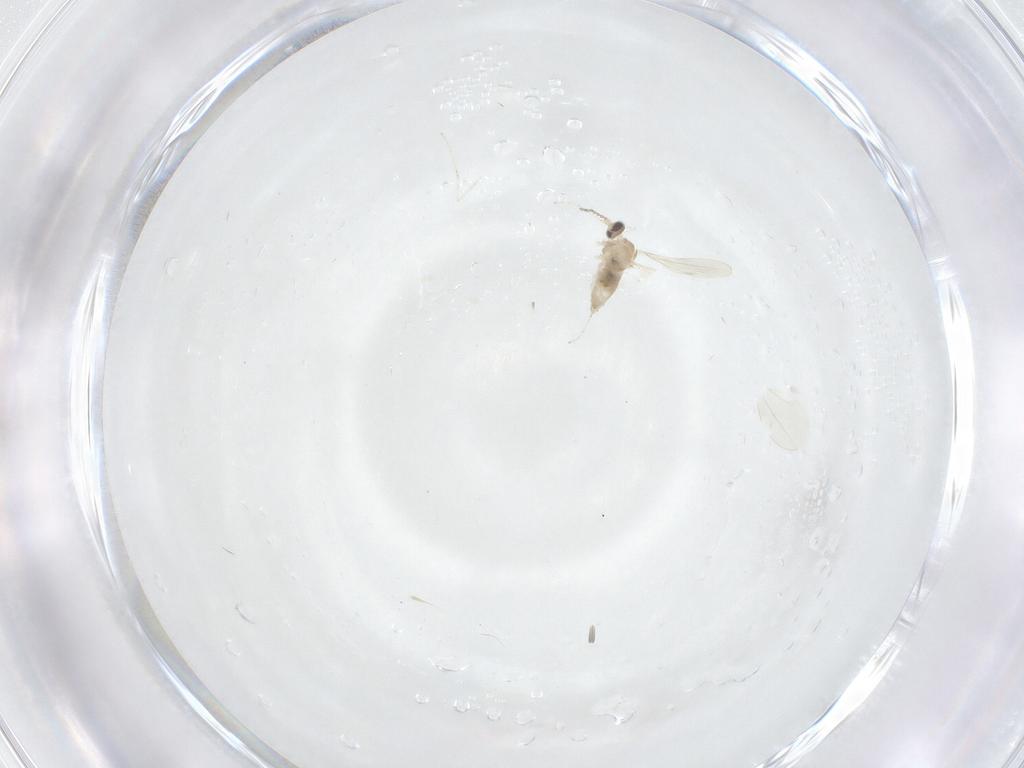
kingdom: Animalia
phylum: Arthropoda
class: Insecta
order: Diptera
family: Cecidomyiidae
